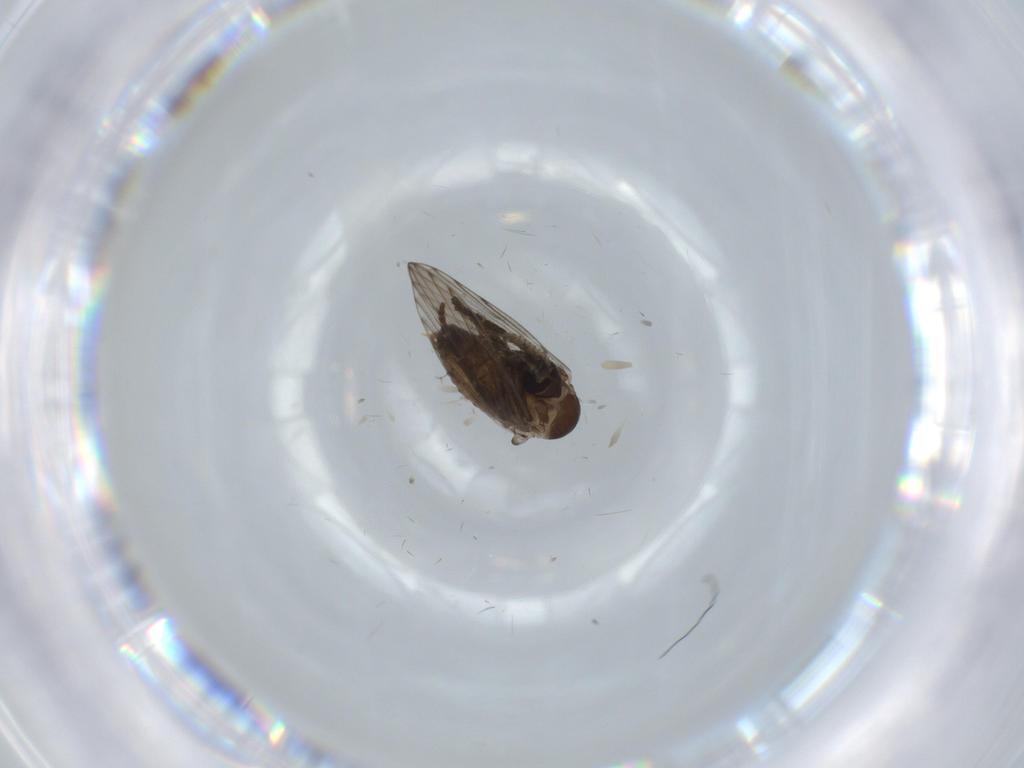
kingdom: Animalia
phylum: Arthropoda
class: Insecta
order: Diptera
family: Psychodidae
